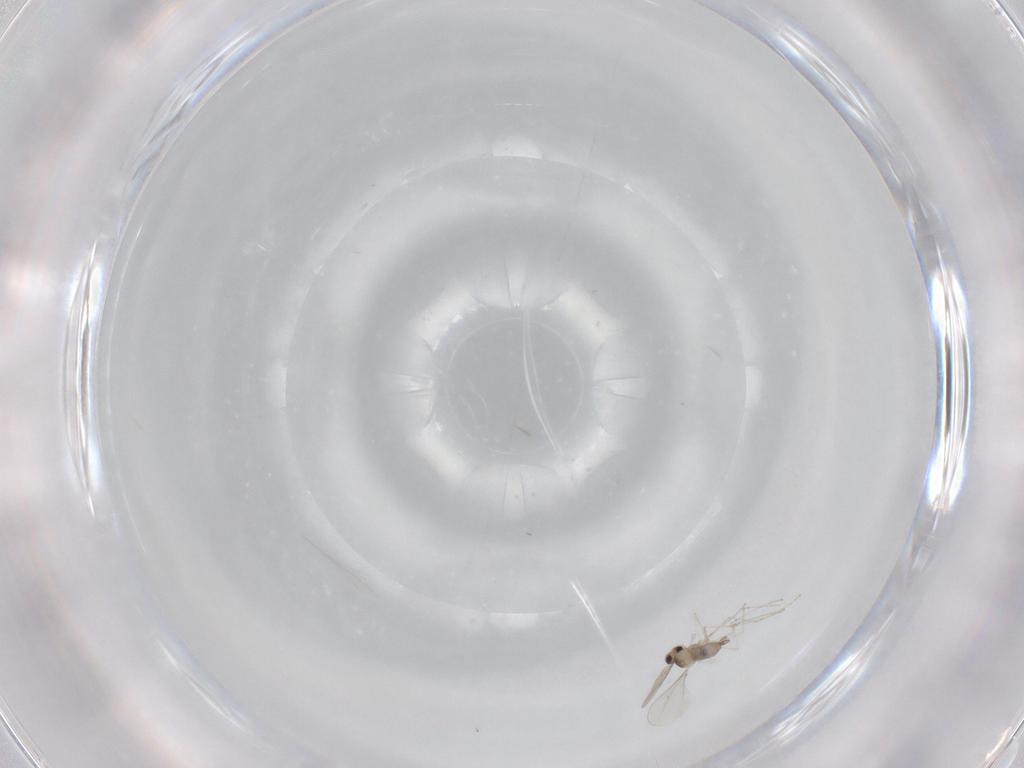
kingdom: Animalia
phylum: Arthropoda
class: Insecta
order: Diptera
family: Cecidomyiidae
